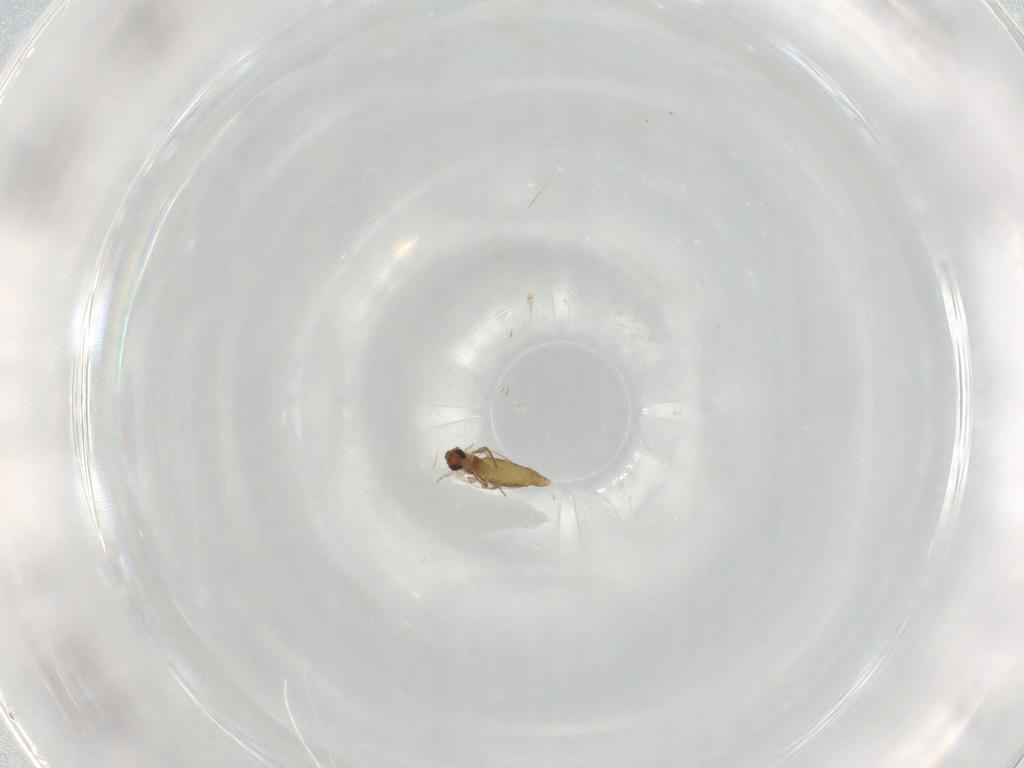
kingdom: Animalia
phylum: Arthropoda
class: Insecta
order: Diptera
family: Chironomidae
